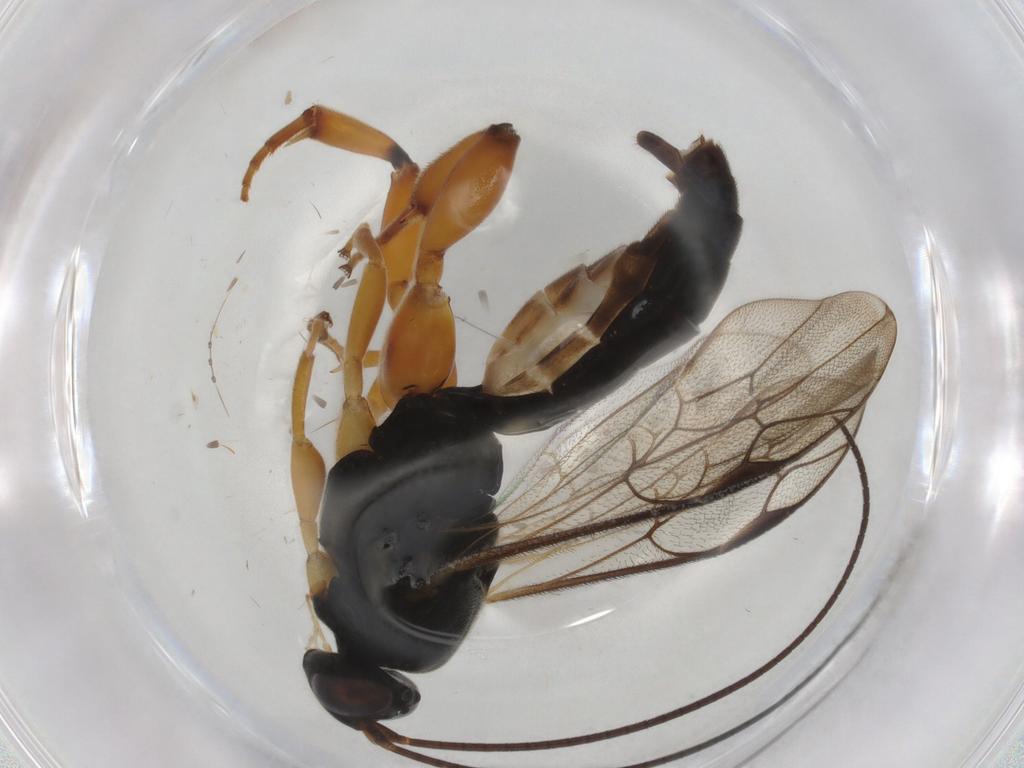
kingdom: Animalia
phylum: Arthropoda
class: Insecta
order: Hymenoptera
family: Ichneumonidae
